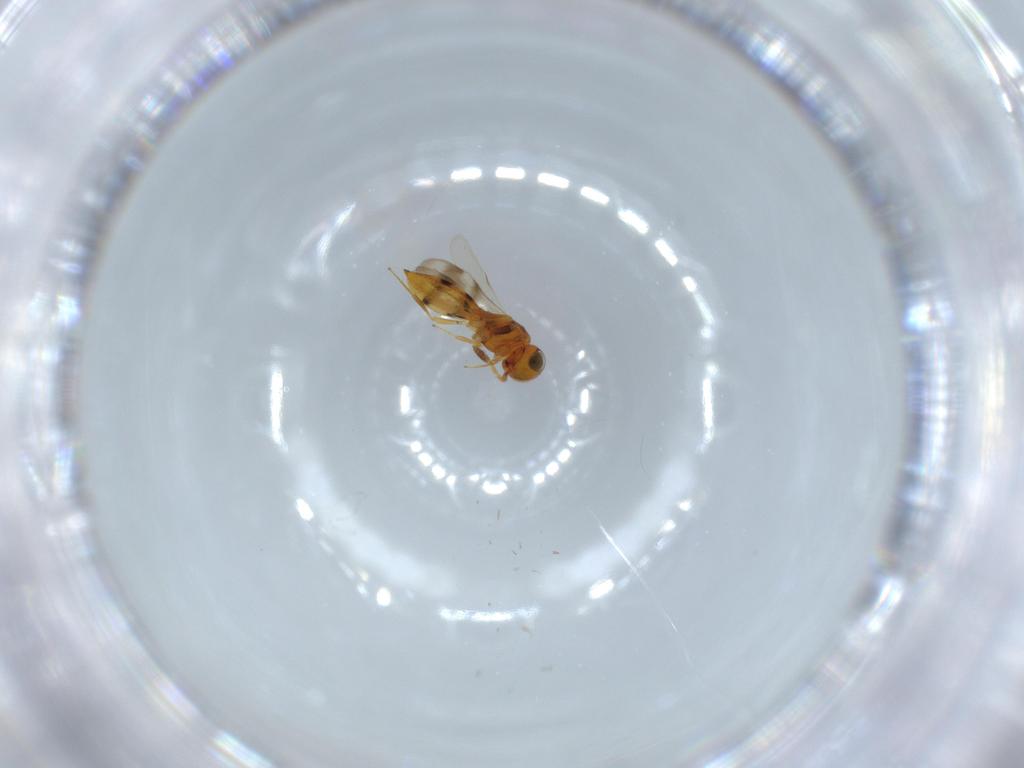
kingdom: Animalia
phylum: Arthropoda
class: Insecta
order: Hymenoptera
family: Scelionidae
